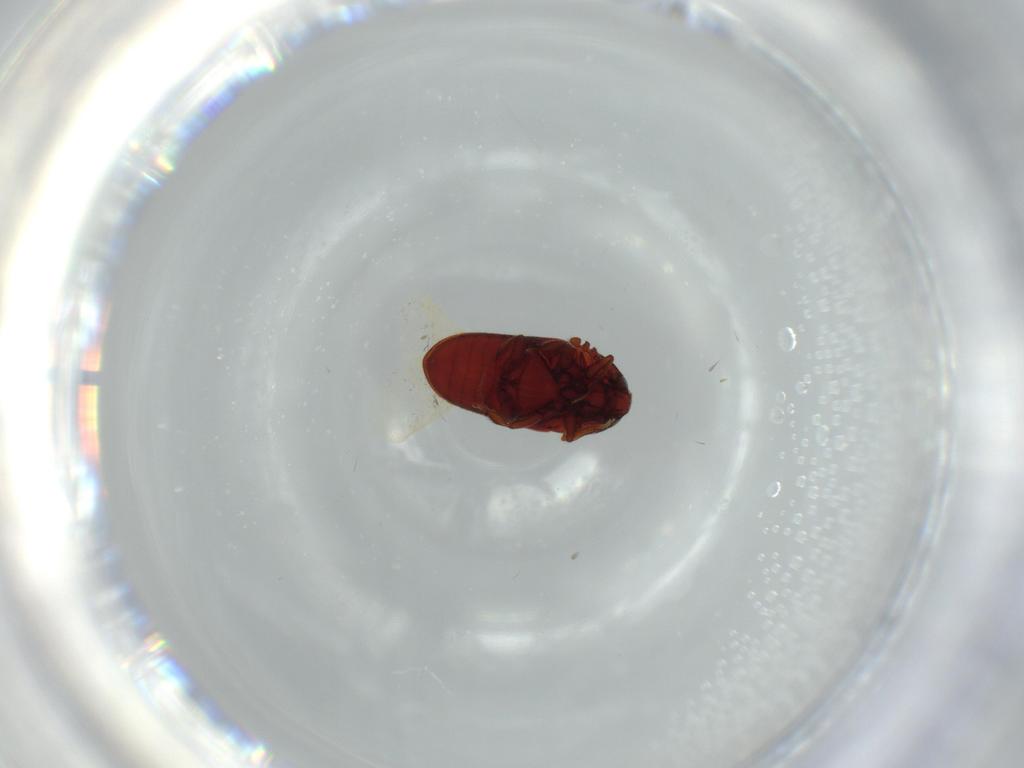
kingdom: Animalia
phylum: Arthropoda
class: Insecta
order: Coleoptera
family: Throscidae
